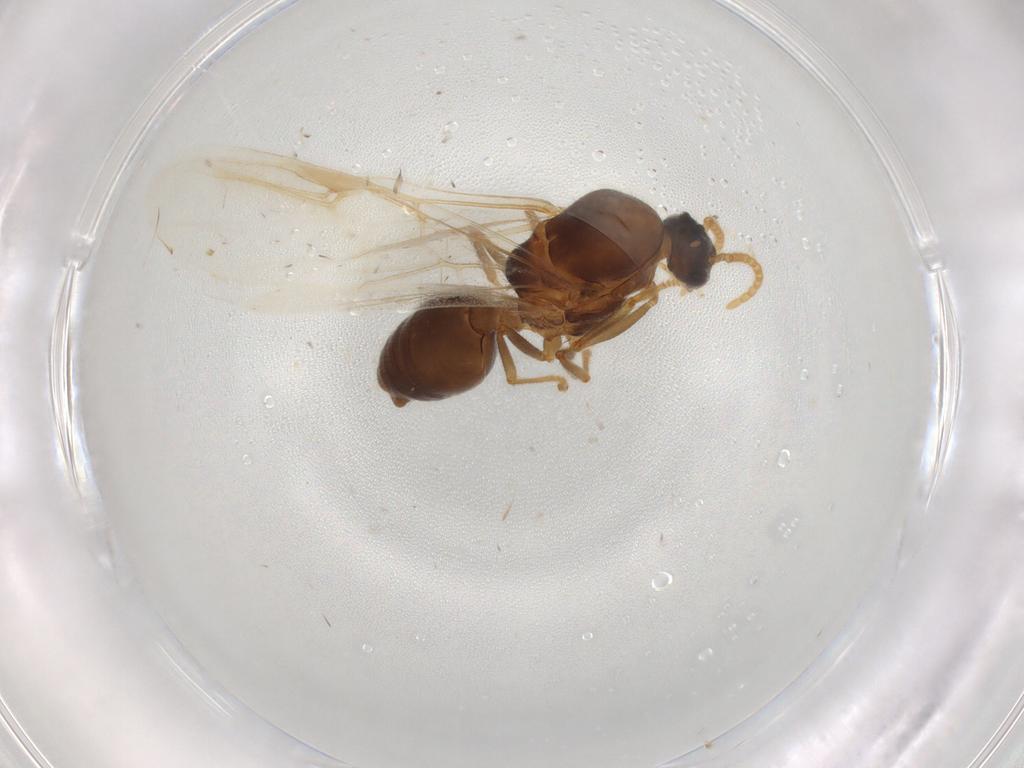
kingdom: Animalia
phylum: Arthropoda
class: Insecta
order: Hymenoptera
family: Formicidae
